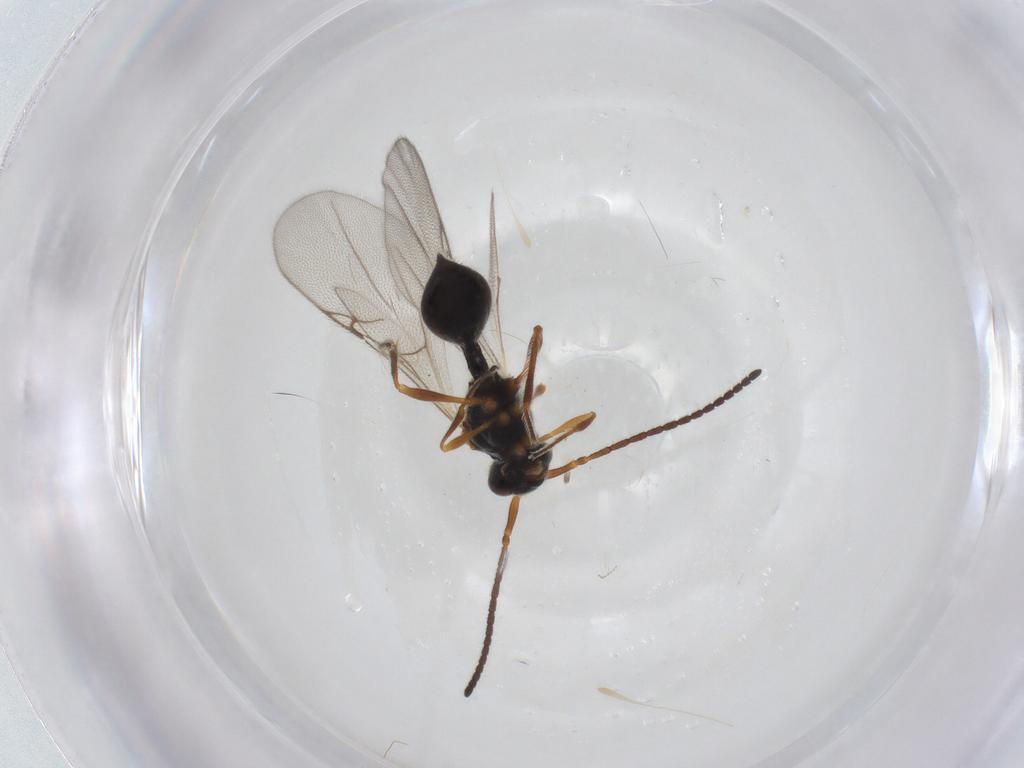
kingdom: Animalia
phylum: Arthropoda
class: Insecta
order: Hymenoptera
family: Diapriidae
